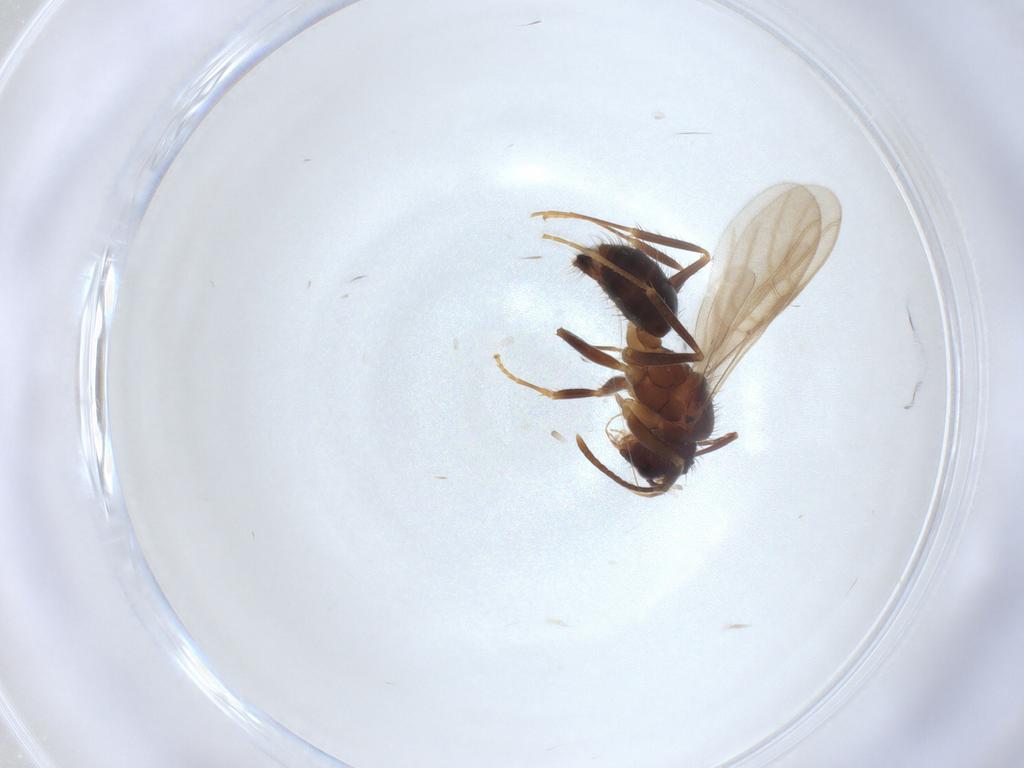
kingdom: Animalia
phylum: Arthropoda
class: Insecta
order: Hymenoptera
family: Formicidae
